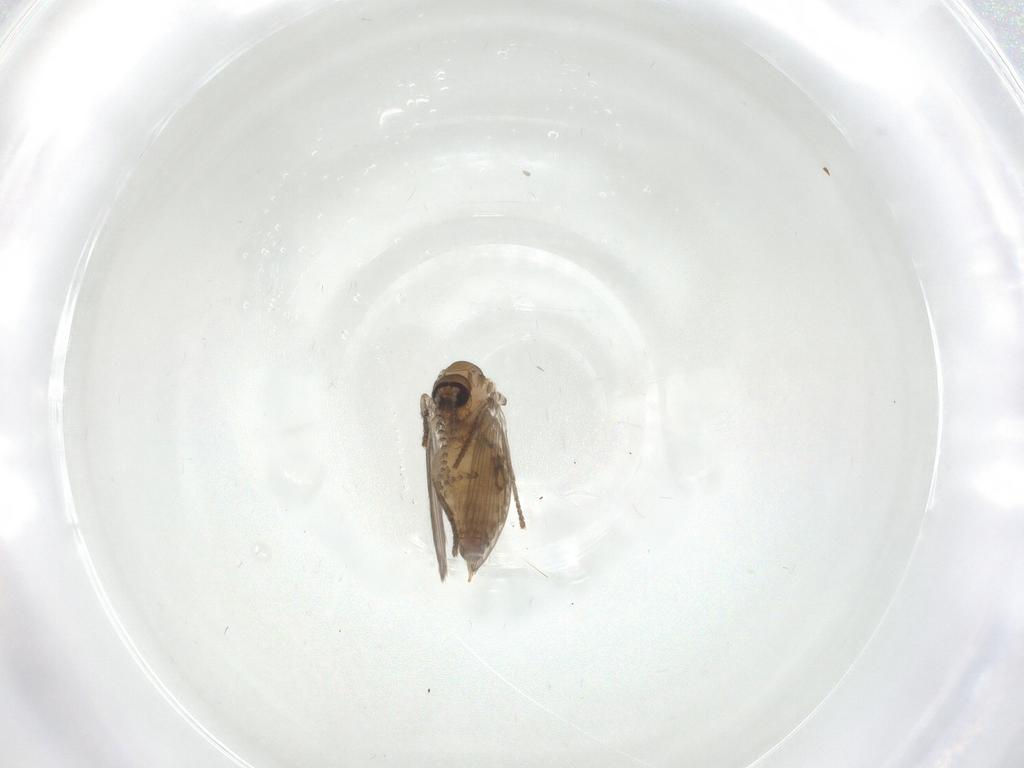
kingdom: Animalia
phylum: Arthropoda
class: Insecta
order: Diptera
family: Psychodidae
